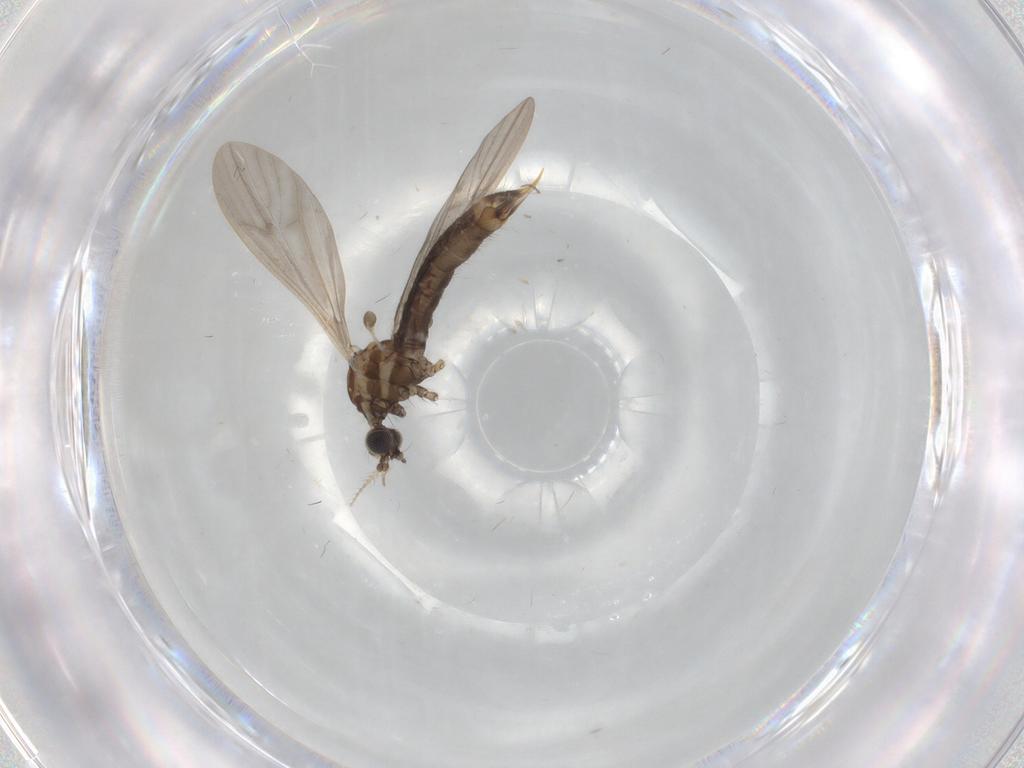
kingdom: Animalia
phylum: Arthropoda
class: Insecta
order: Diptera
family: Limoniidae
